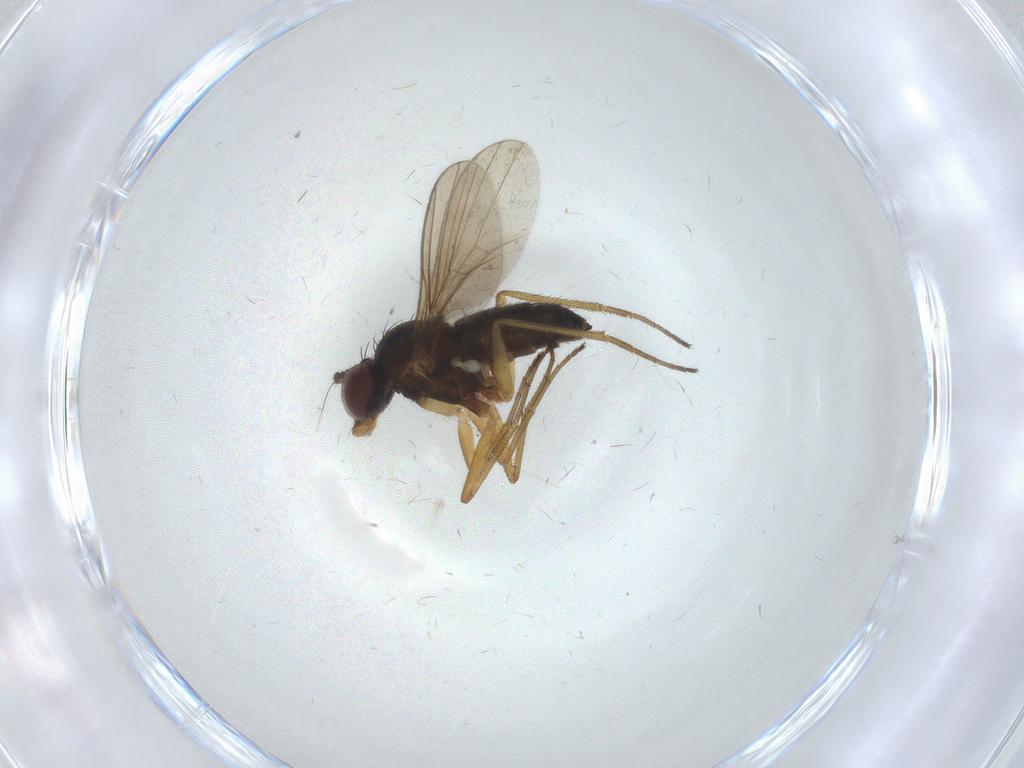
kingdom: Animalia
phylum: Arthropoda
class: Insecta
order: Diptera
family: Dolichopodidae
